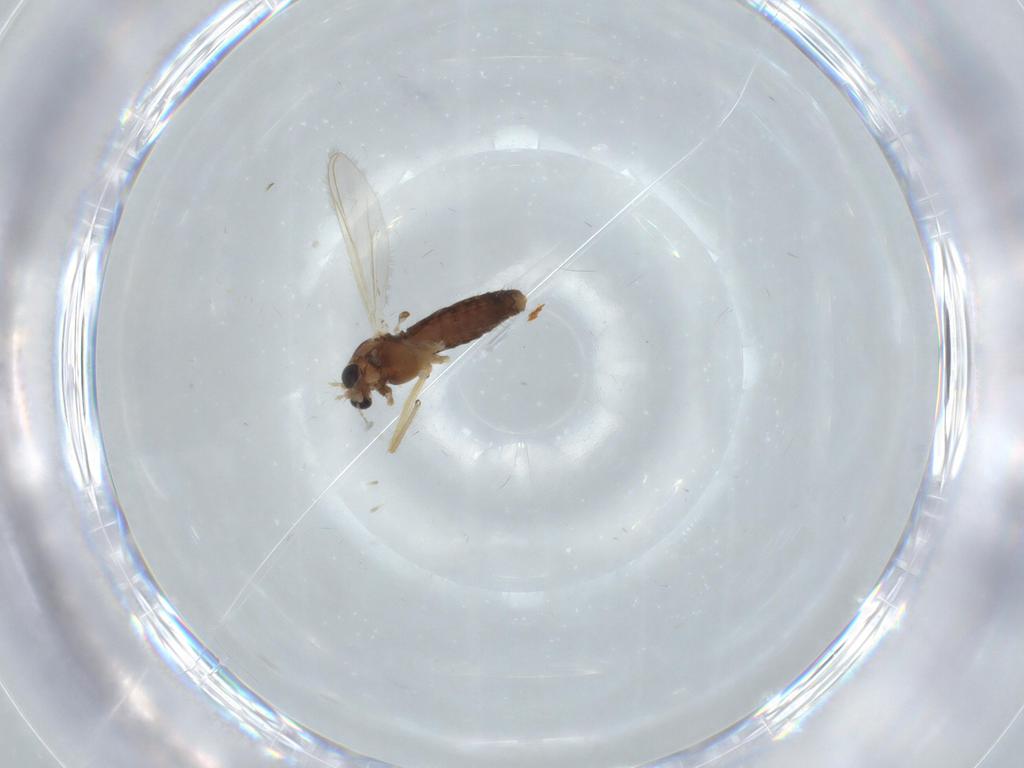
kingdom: Animalia
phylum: Arthropoda
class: Insecta
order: Diptera
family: Chironomidae
